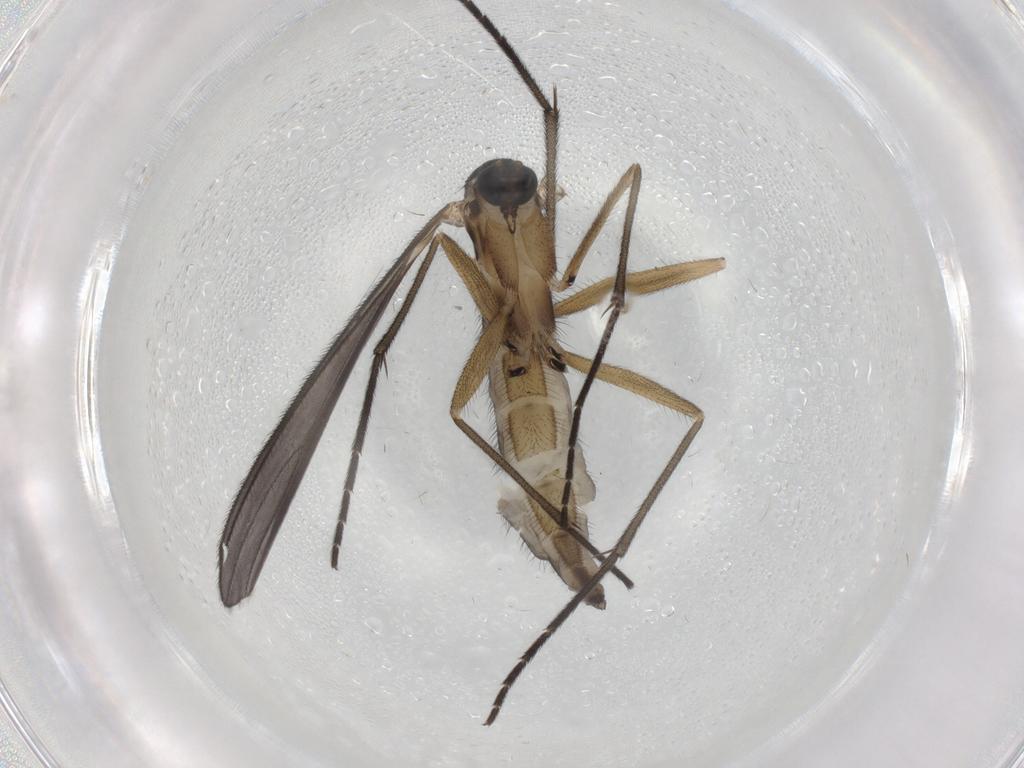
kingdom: Animalia
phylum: Arthropoda
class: Insecta
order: Diptera
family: Sciaridae
